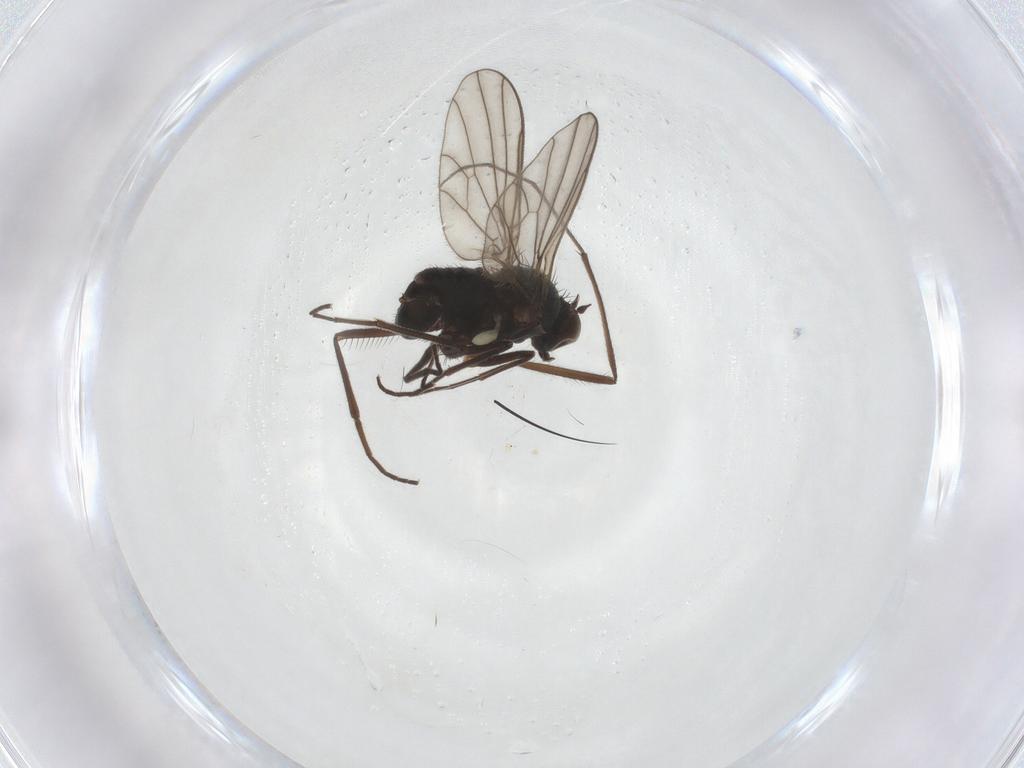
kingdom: Animalia
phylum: Arthropoda
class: Insecta
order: Diptera
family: Chironomidae
